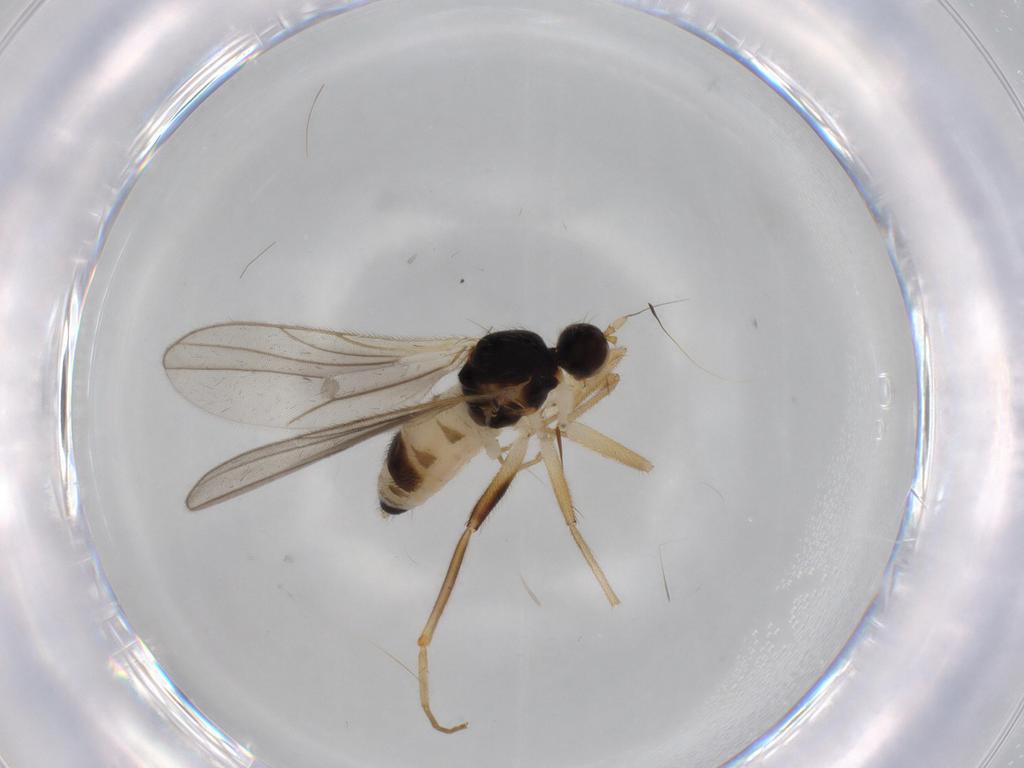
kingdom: Animalia
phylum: Arthropoda
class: Insecta
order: Diptera
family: Hybotidae
